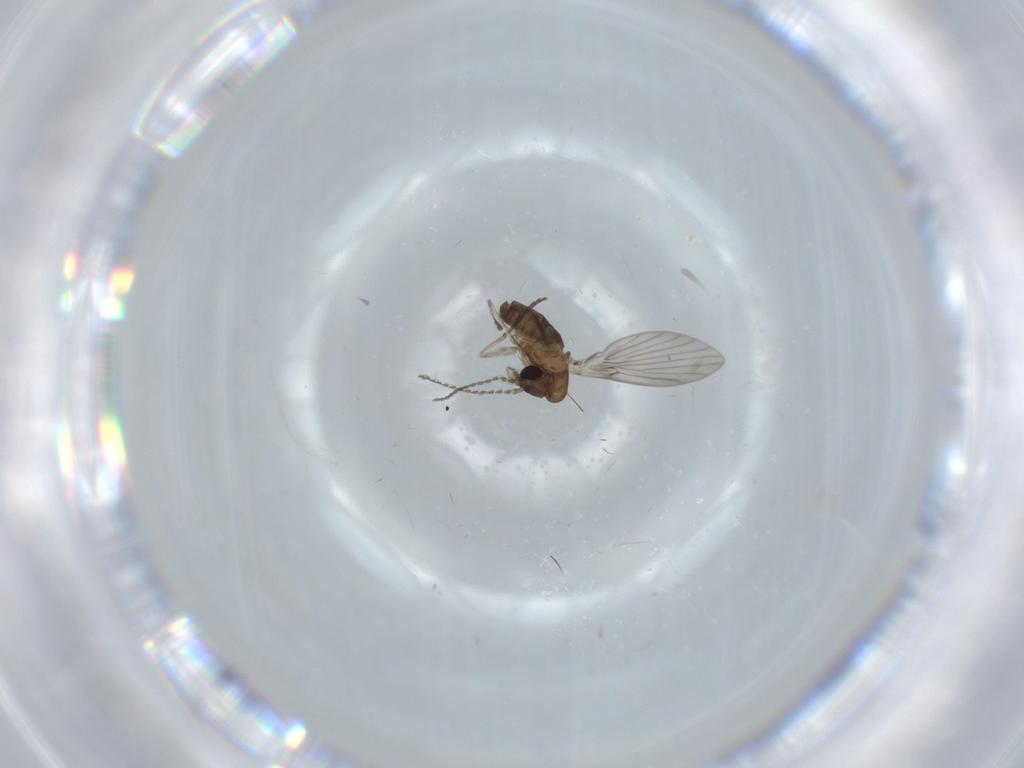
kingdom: Animalia
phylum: Arthropoda
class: Insecta
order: Diptera
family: Psychodidae
